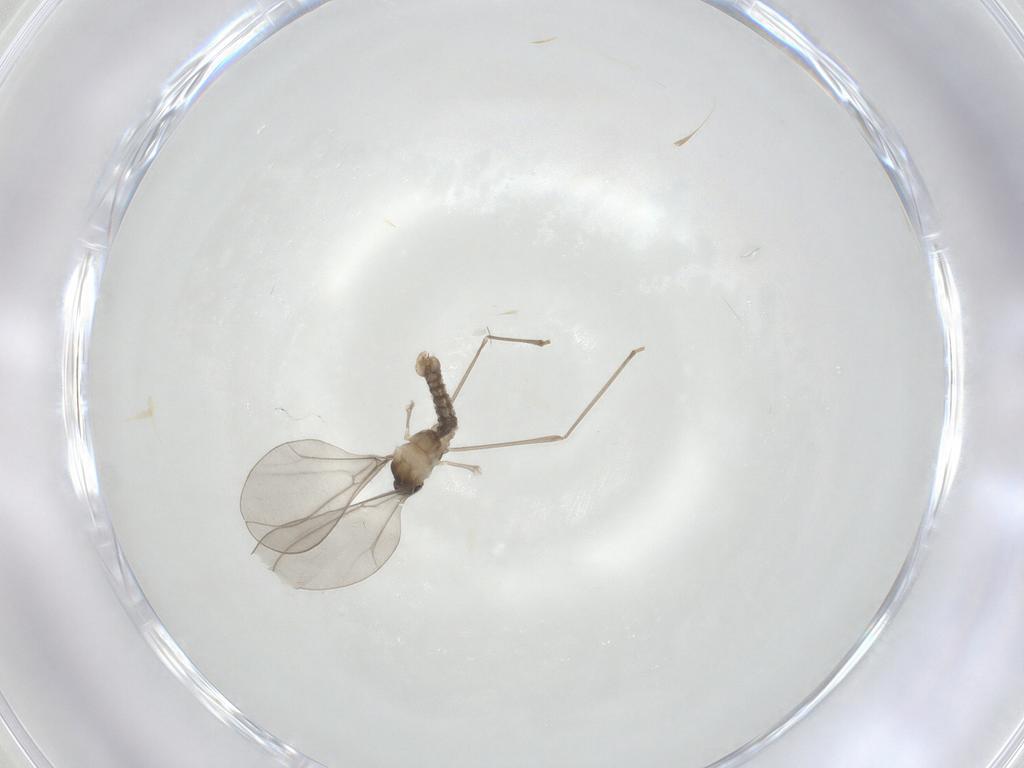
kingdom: Animalia
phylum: Arthropoda
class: Insecta
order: Diptera
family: Cecidomyiidae
